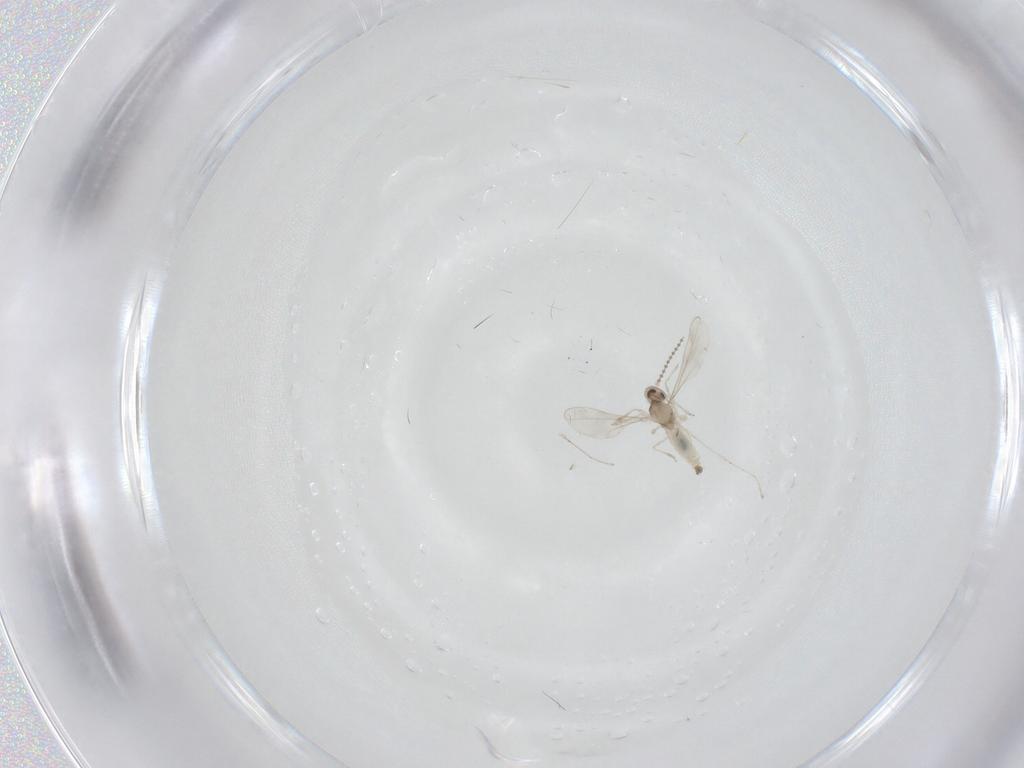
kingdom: Animalia
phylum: Arthropoda
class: Insecta
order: Diptera
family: Cecidomyiidae
